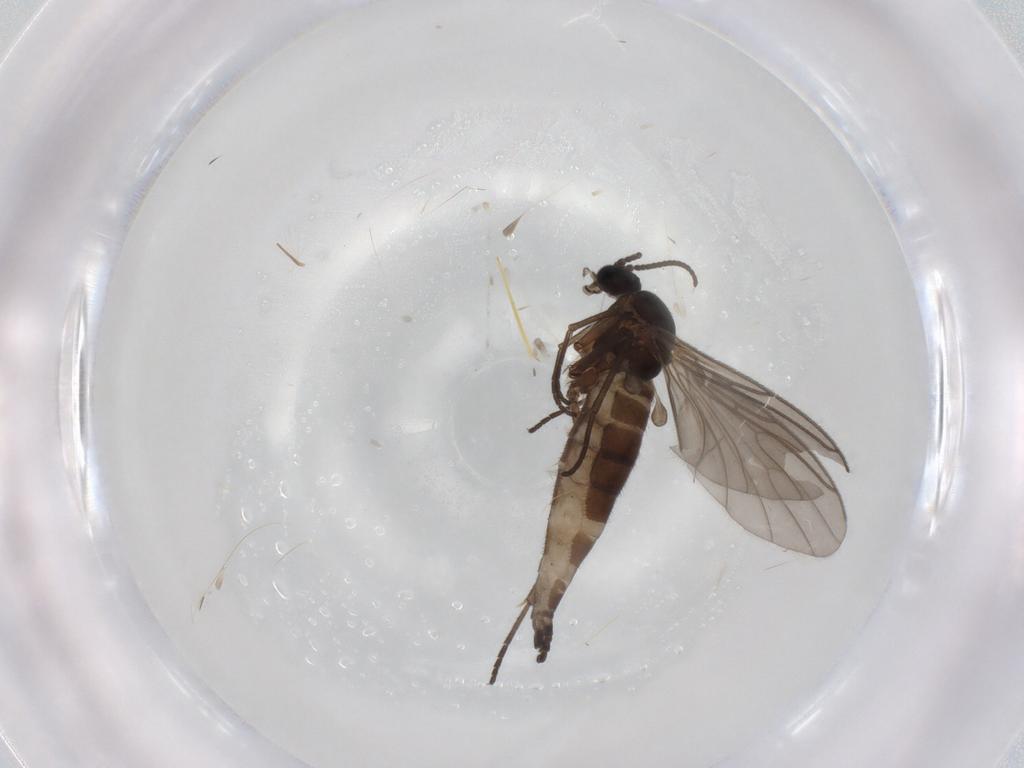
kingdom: Animalia
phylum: Arthropoda
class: Insecta
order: Diptera
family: Sciaridae
